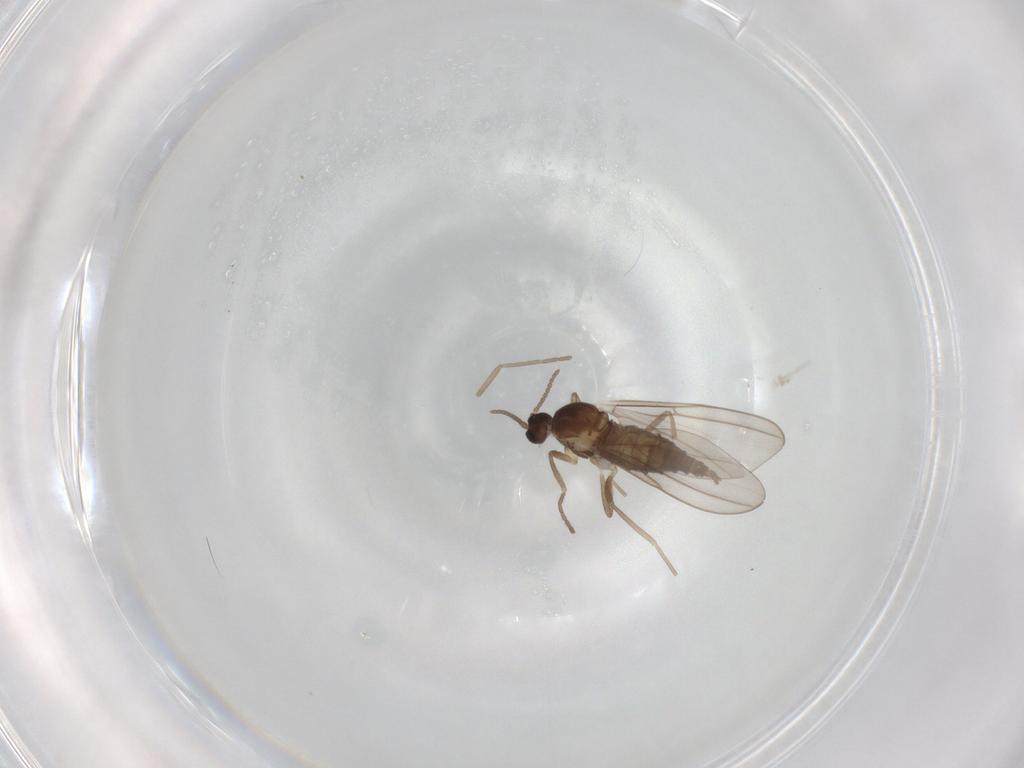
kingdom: Animalia
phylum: Arthropoda
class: Insecta
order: Diptera
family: Cecidomyiidae
